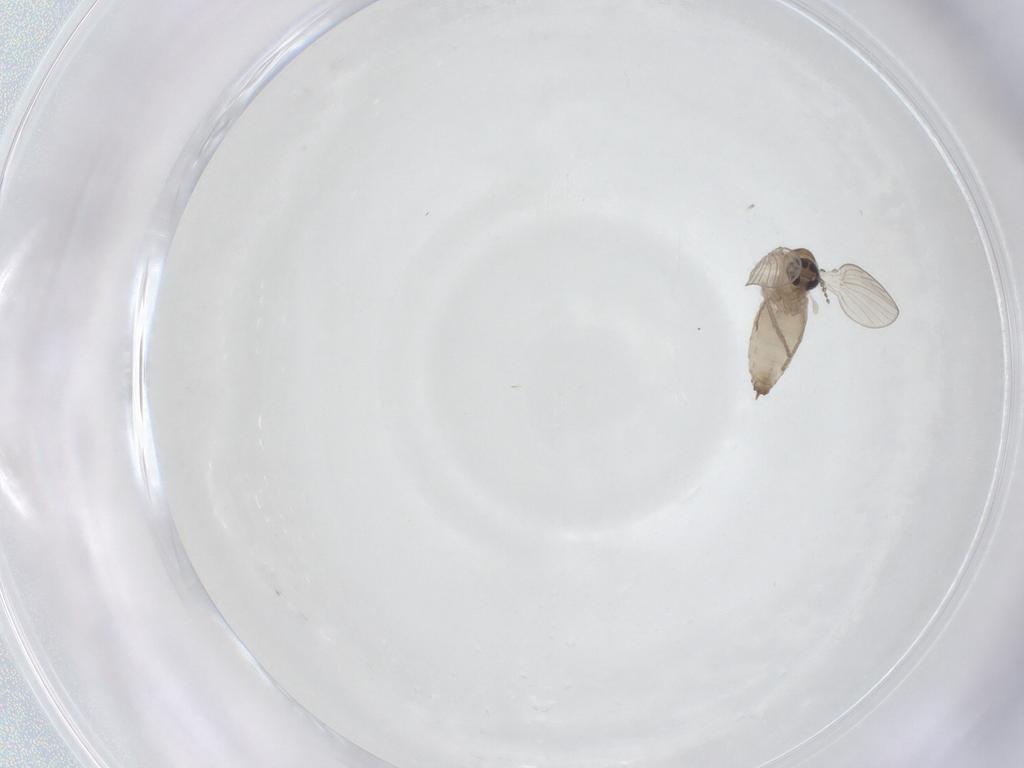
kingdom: Animalia
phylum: Arthropoda
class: Insecta
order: Diptera
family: Psychodidae
